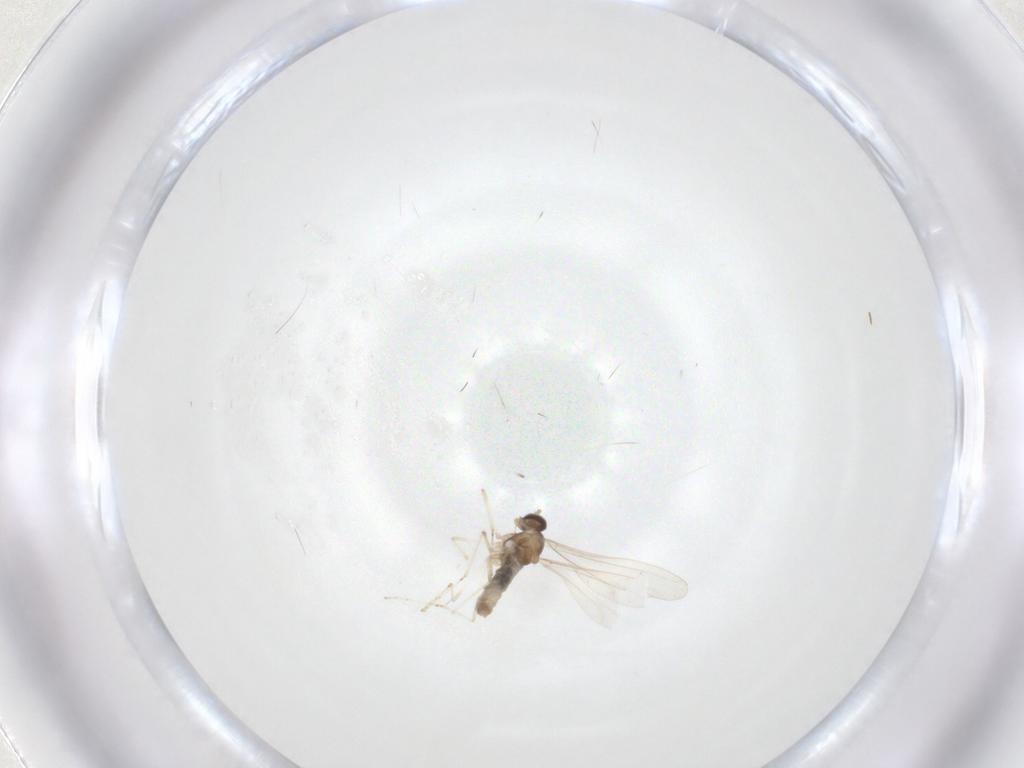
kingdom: Animalia
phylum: Arthropoda
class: Insecta
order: Diptera
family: Cecidomyiidae
